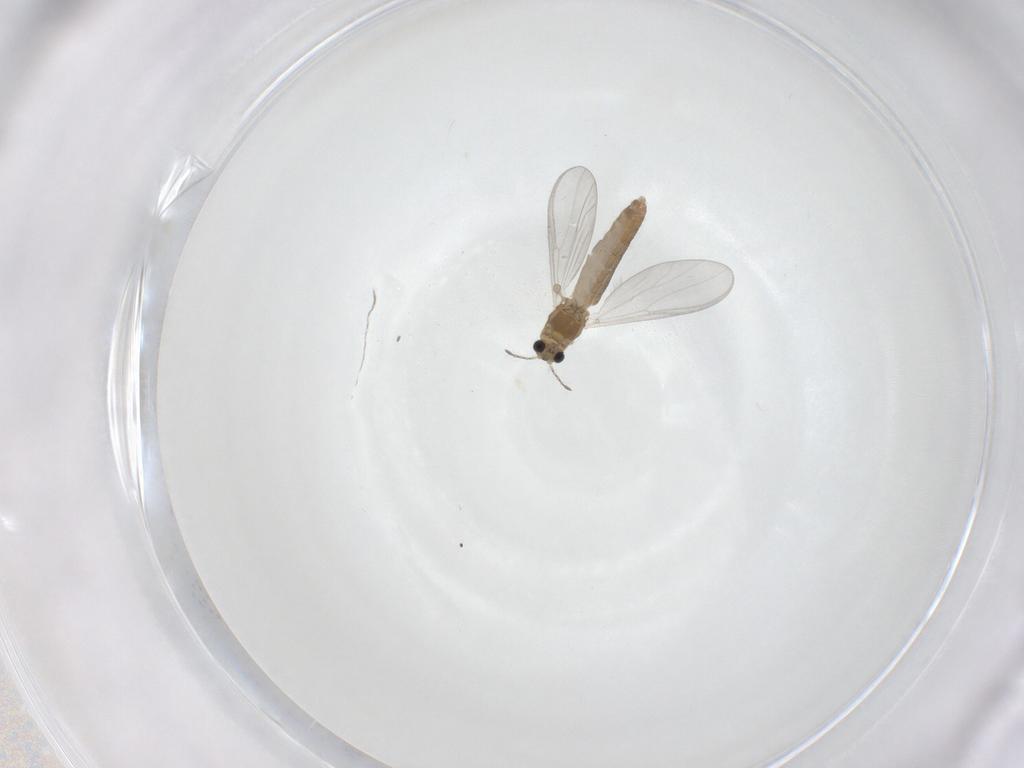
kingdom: Animalia
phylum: Arthropoda
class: Insecta
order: Diptera
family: Chironomidae
